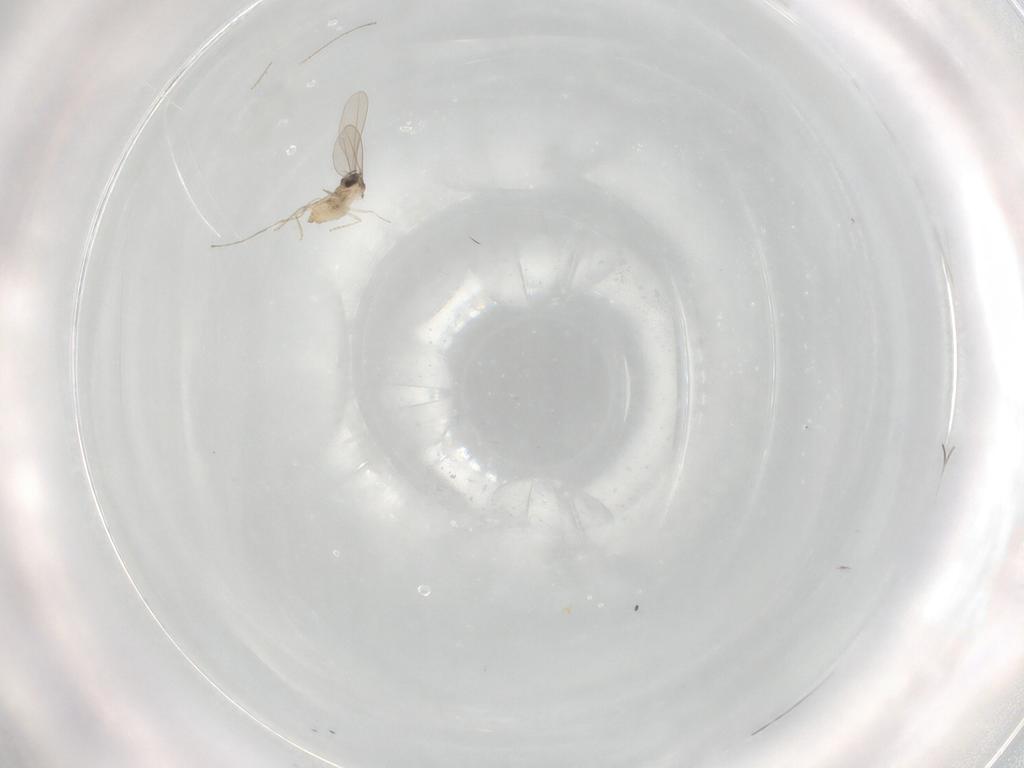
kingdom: Animalia
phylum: Arthropoda
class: Insecta
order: Diptera
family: Cecidomyiidae
